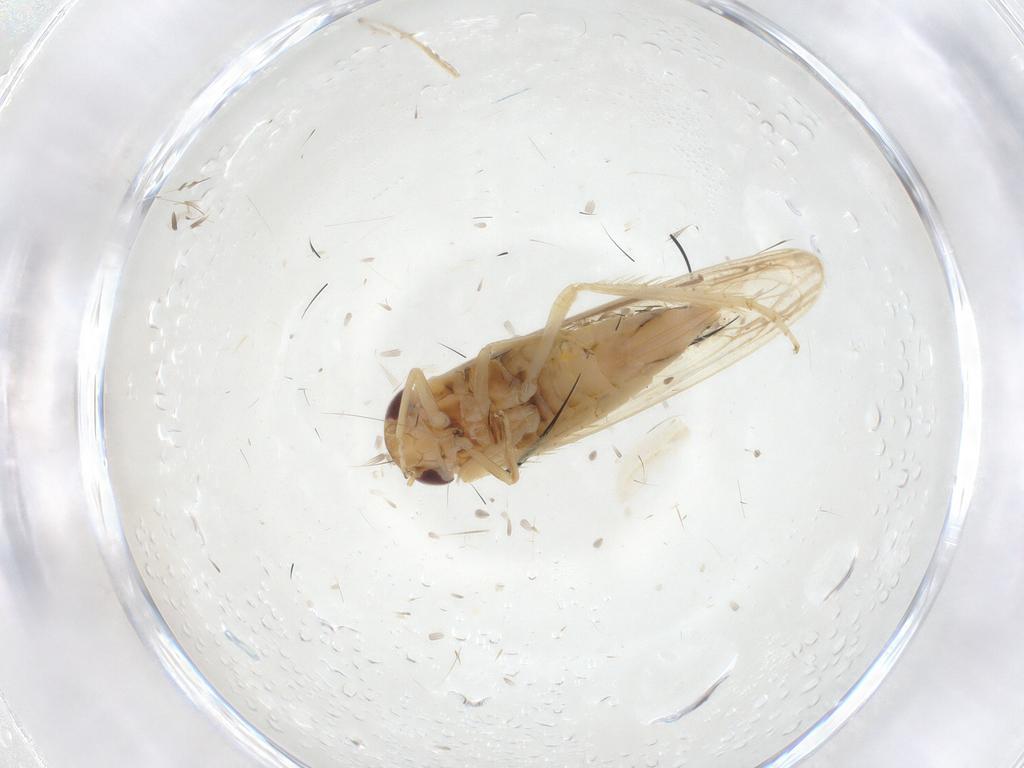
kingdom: Animalia
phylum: Arthropoda
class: Insecta
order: Hemiptera
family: Cicadellidae
